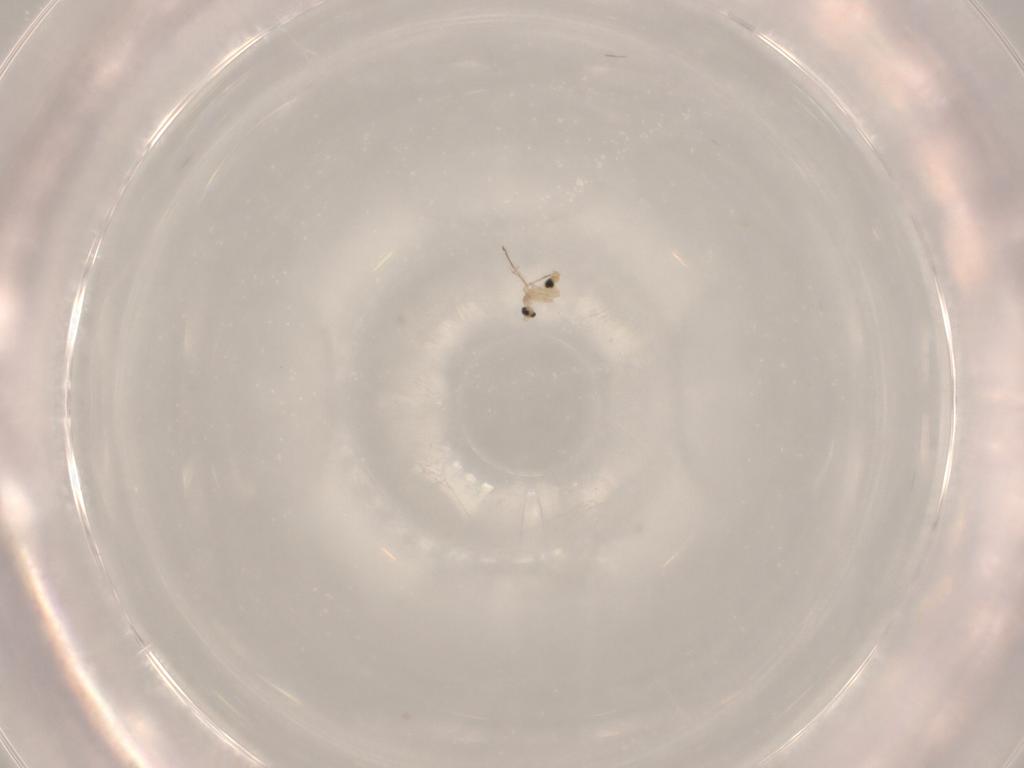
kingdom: Animalia
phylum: Arthropoda
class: Insecta
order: Diptera
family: Cecidomyiidae
